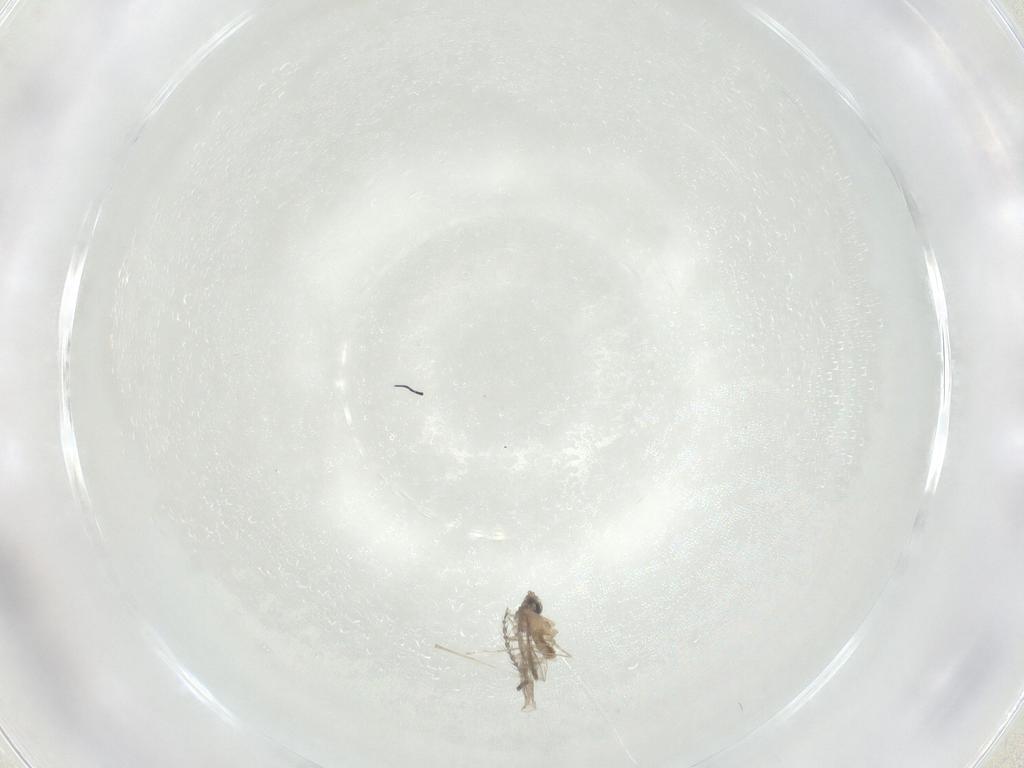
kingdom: Animalia
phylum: Arthropoda
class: Insecta
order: Diptera
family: Cecidomyiidae
